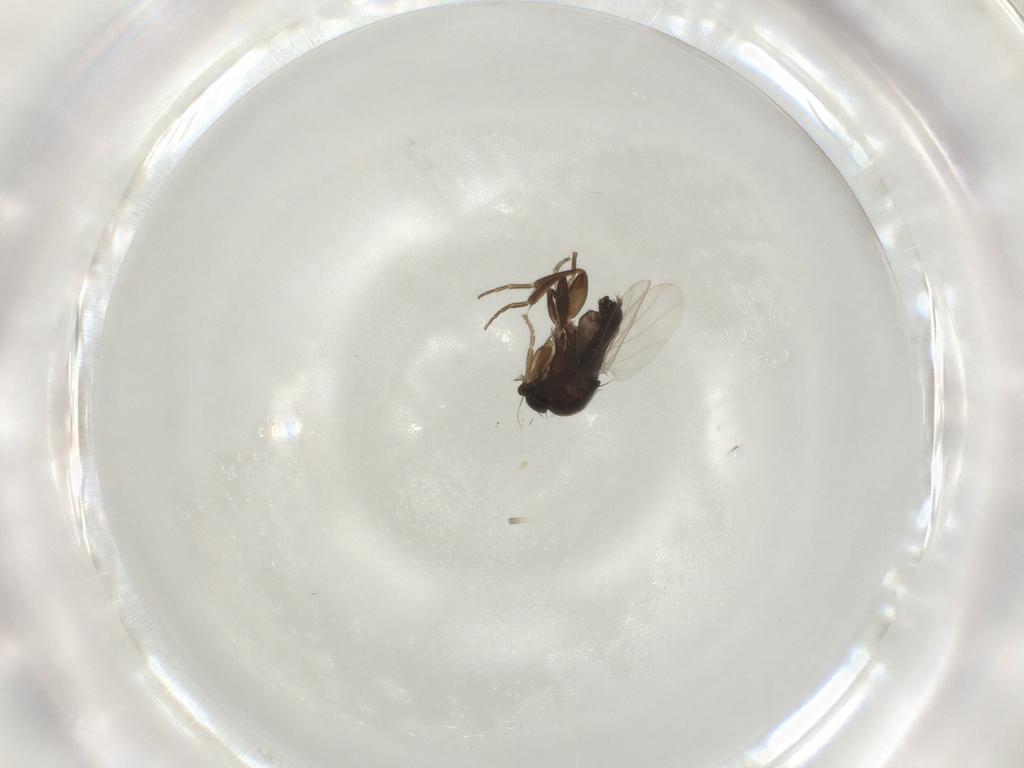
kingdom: Animalia
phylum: Arthropoda
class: Insecta
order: Diptera
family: Phoridae
